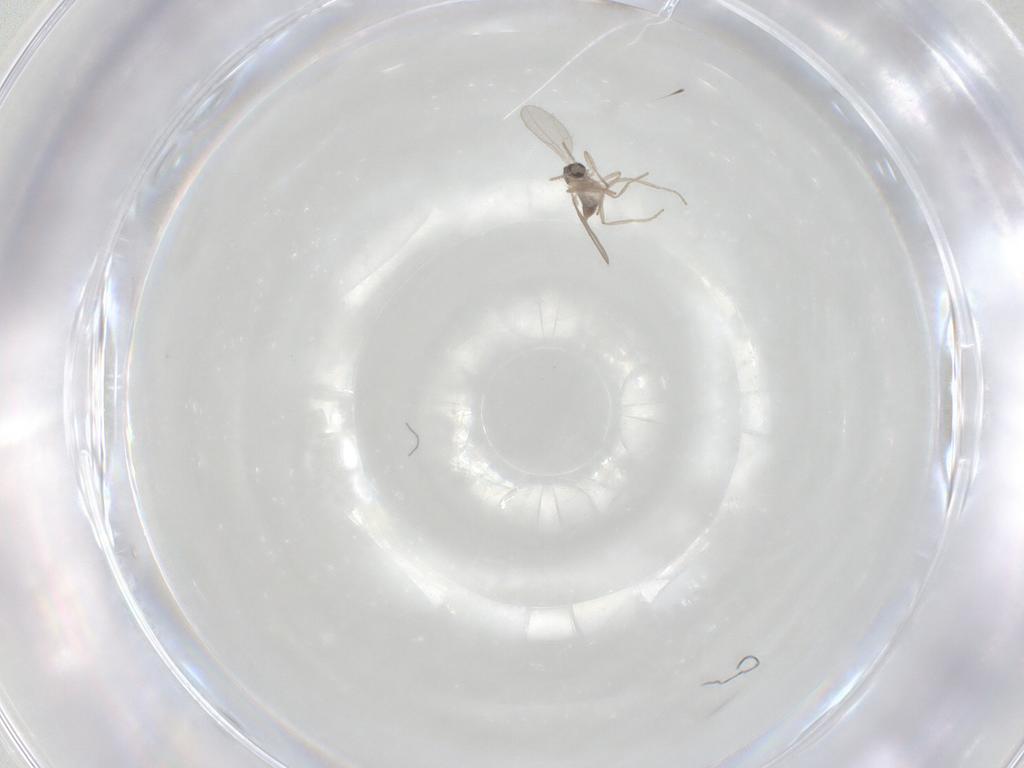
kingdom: Animalia
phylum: Arthropoda
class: Insecta
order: Diptera
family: Cecidomyiidae
